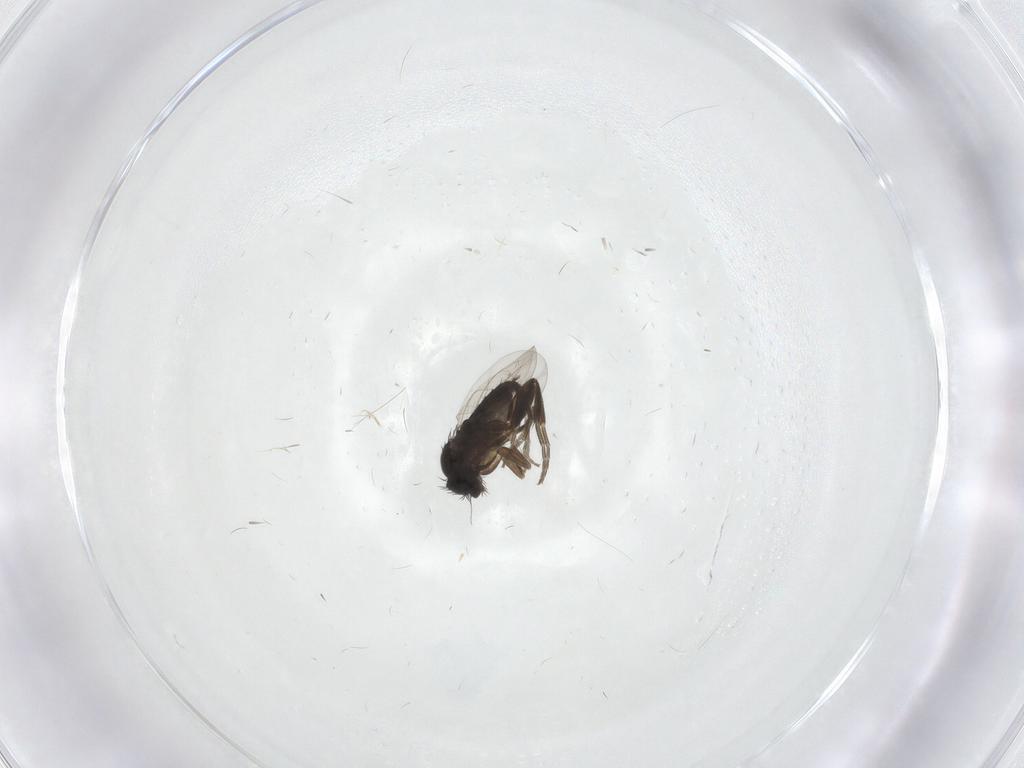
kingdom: Animalia
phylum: Arthropoda
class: Insecta
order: Diptera
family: Phoridae
